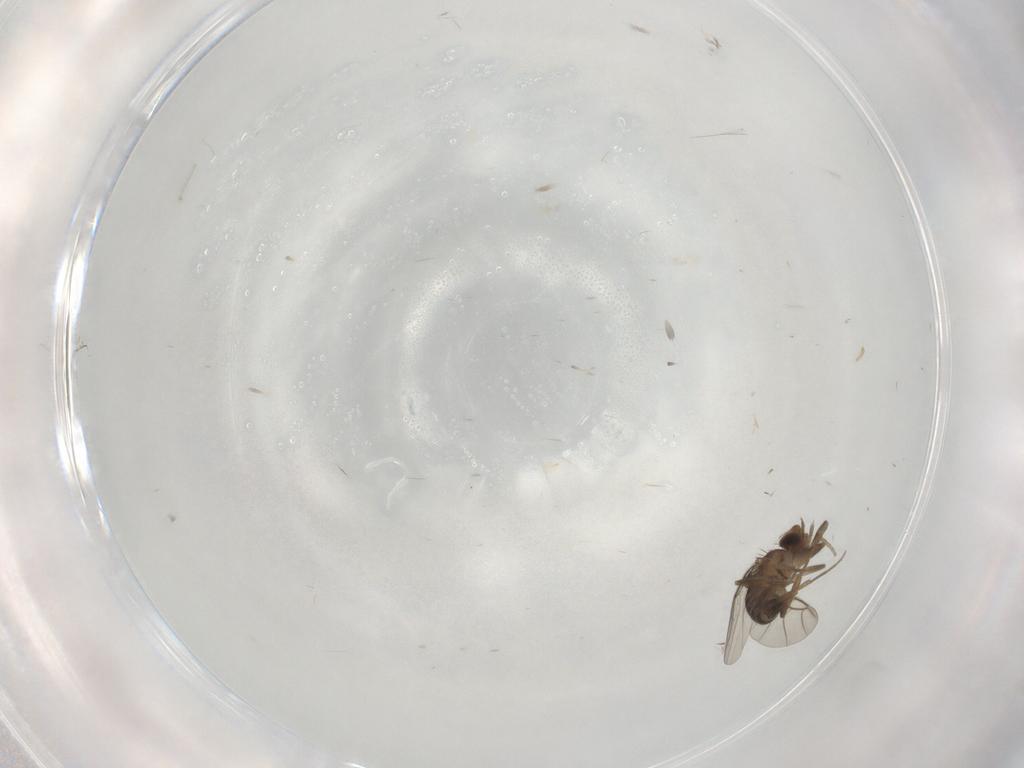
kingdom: Animalia
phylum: Arthropoda
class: Insecta
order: Diptera
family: Phoridae
